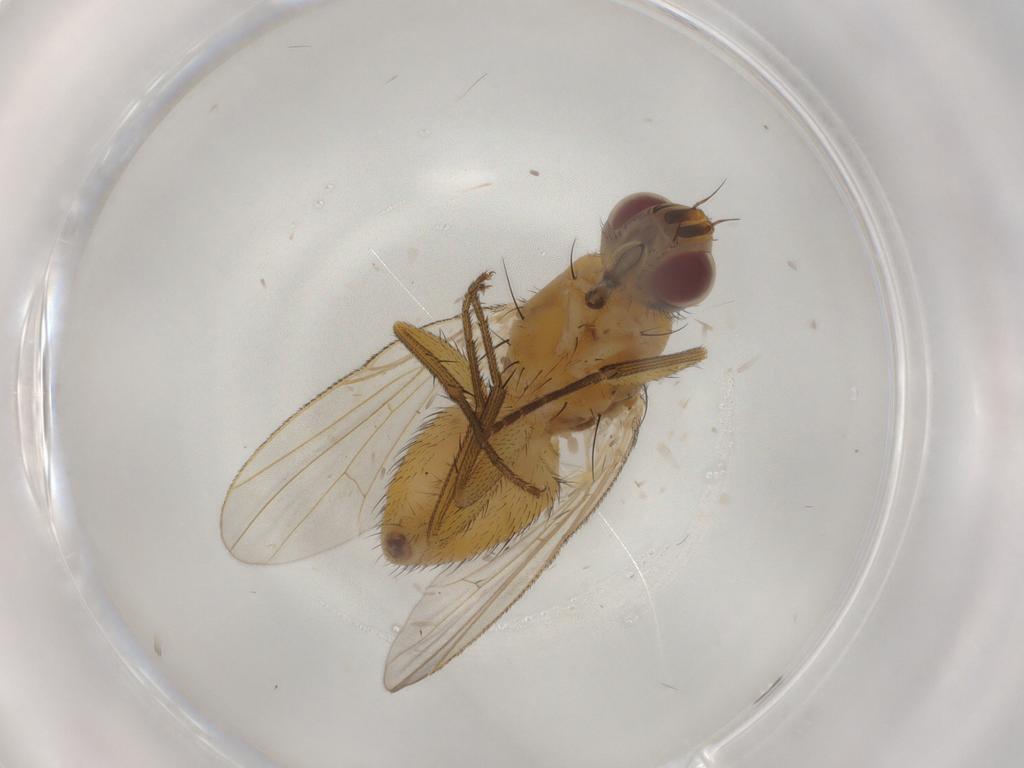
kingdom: Animalia
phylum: Arthropoda
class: Insecta
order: Diptera
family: Muscidae
